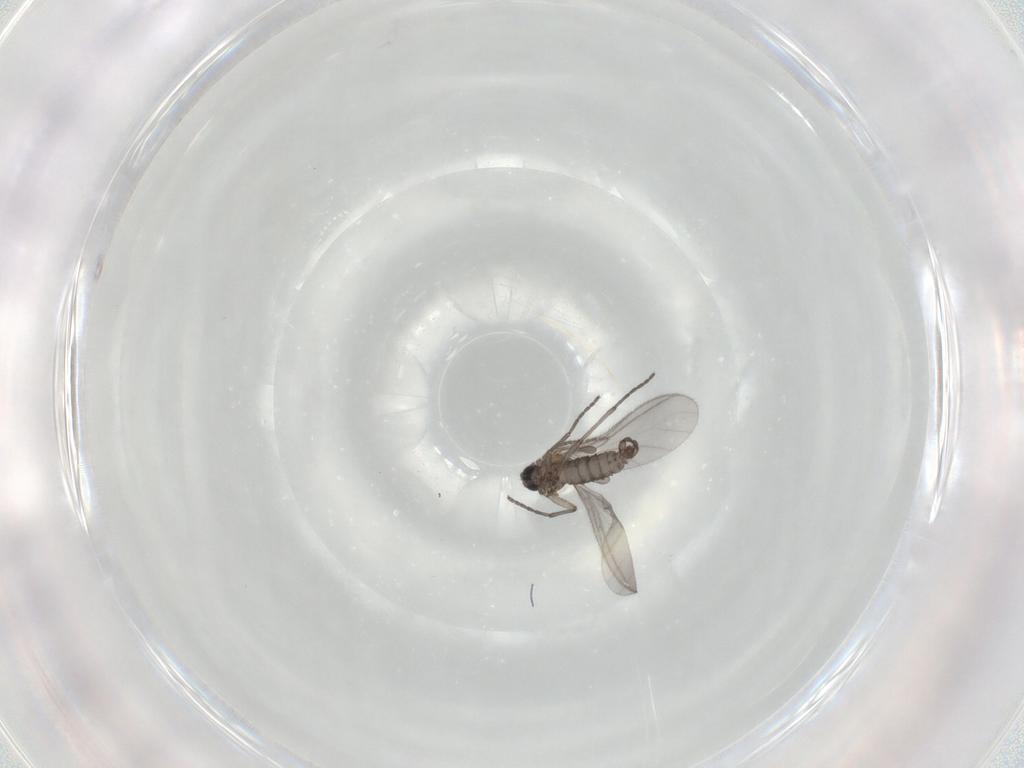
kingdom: Animalia
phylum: Arthropoda
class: Insecta
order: Diptera
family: Sciaridae
